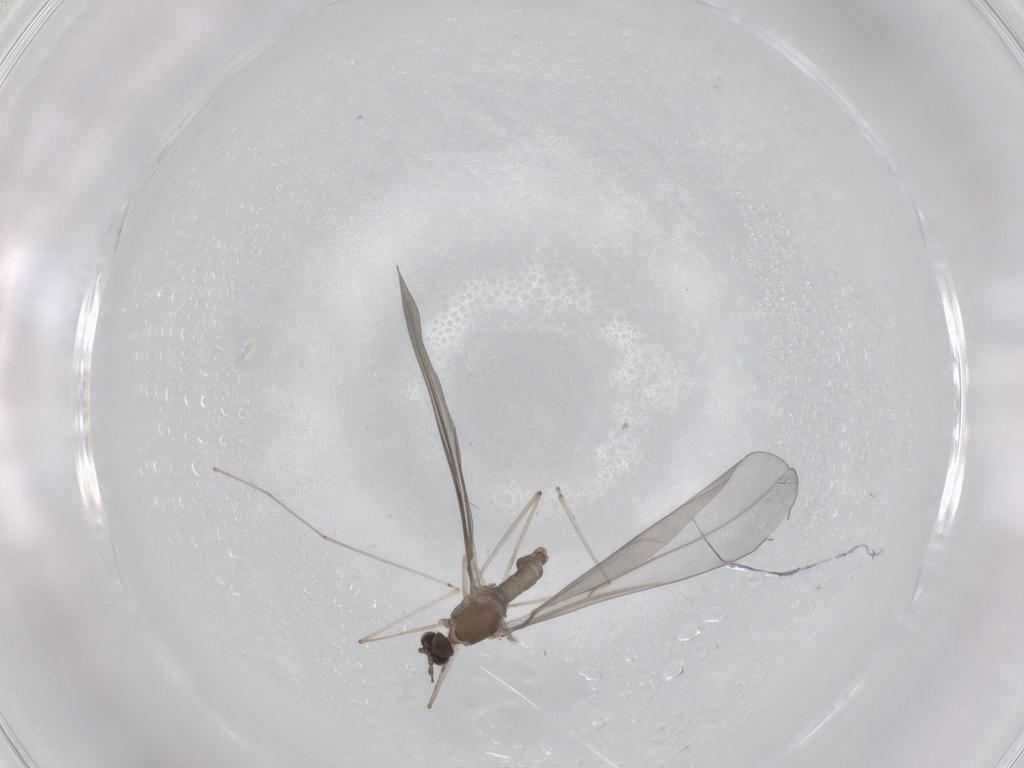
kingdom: Animalia
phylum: Arthropoda
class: Insecta
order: Diptera
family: Cecidomyiidae
